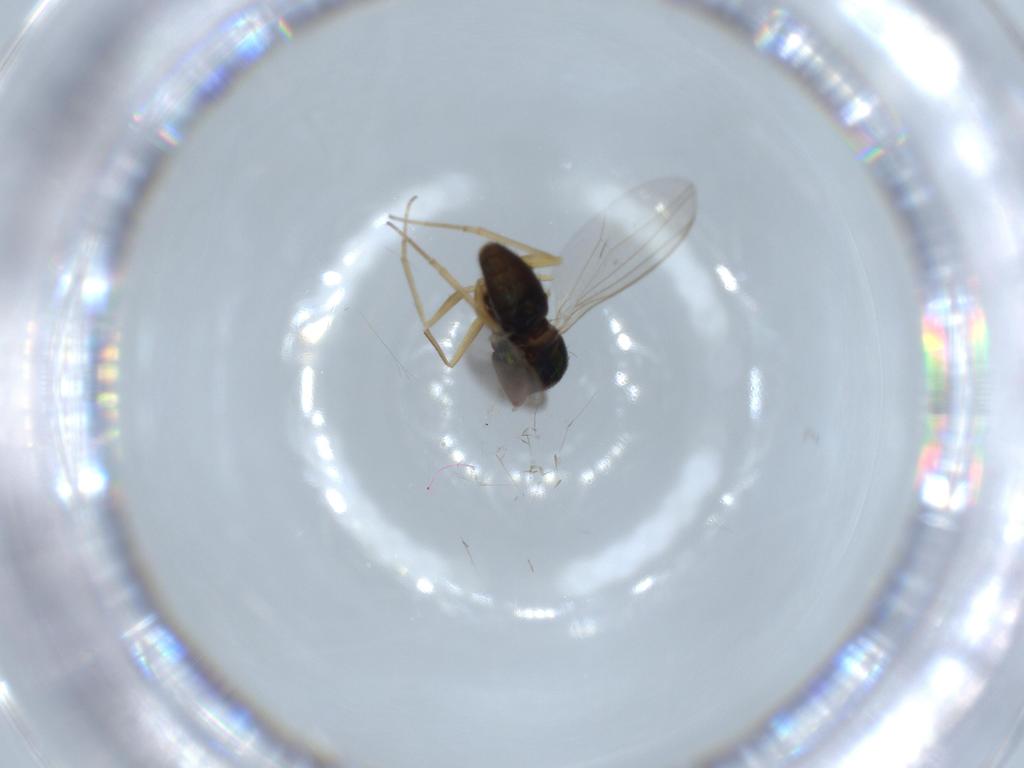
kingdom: Animalia
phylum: Arthropoda
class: Insecta
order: Diptera
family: Dolichopodidae
